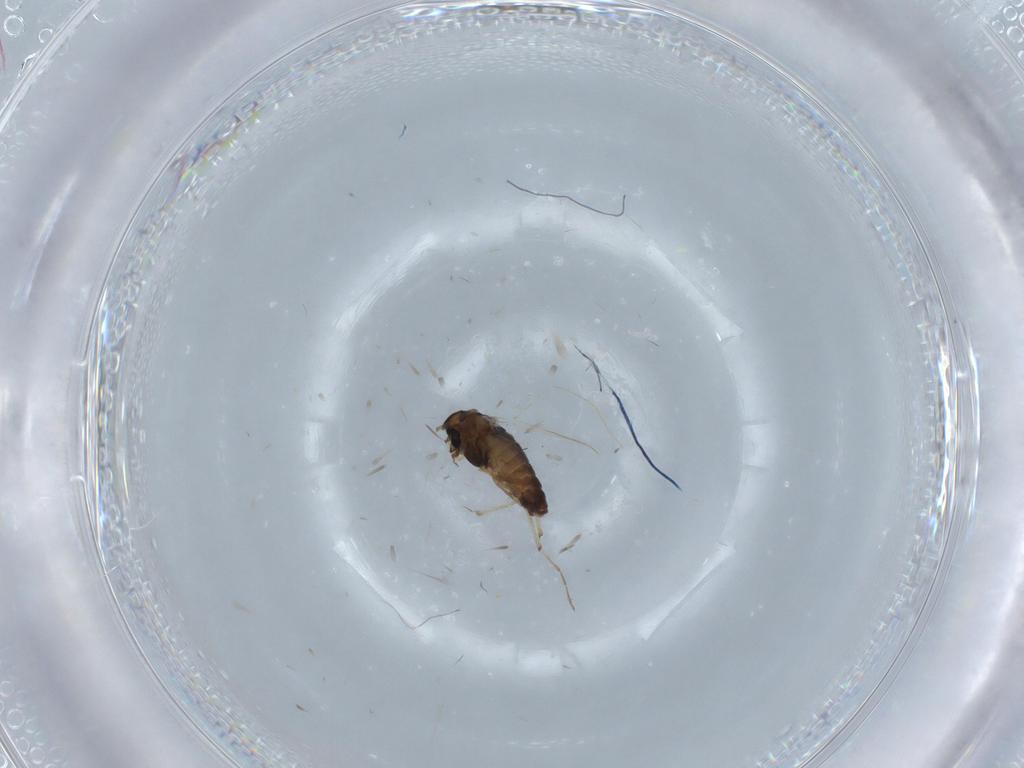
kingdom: Animalia
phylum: Arthropoda
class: Insecta
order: Diptera
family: Chironomidae
